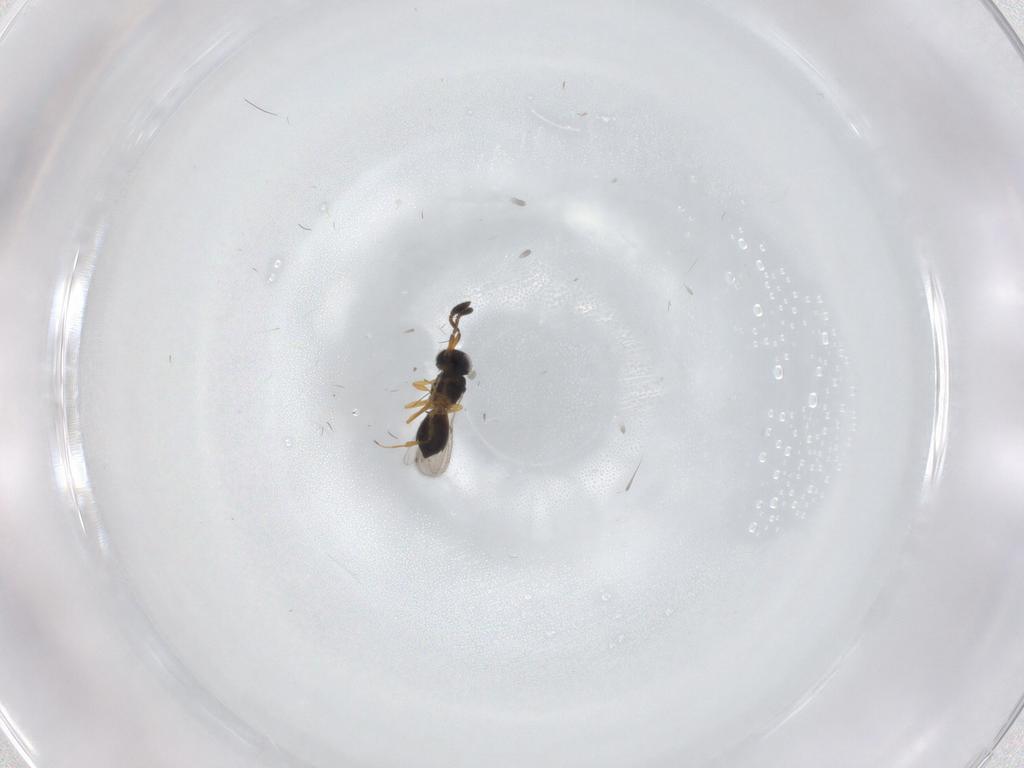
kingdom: Animalia
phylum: Arthropoda
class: Insecta
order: Hymenoptera
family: Scelionidae
